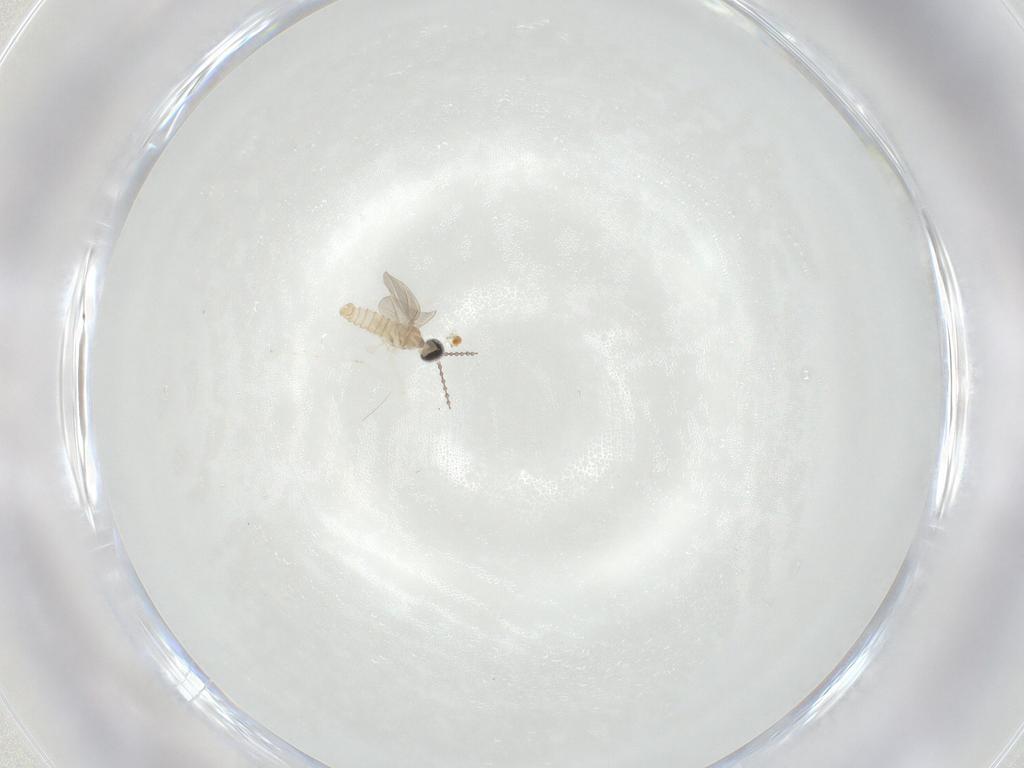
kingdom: Animalia
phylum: Arthropoda
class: Insecta
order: Diptera
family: Cecidomyiidae
